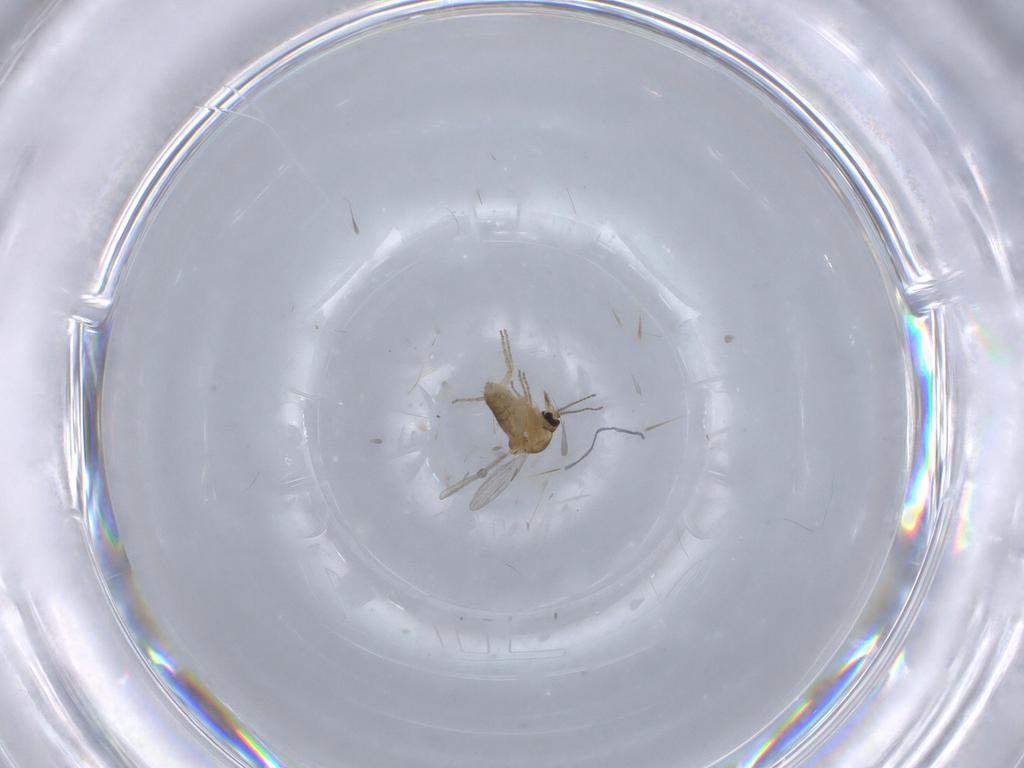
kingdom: Animalia
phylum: Arthropoda
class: Insecta
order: Diptera
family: Ceratopogonidae
